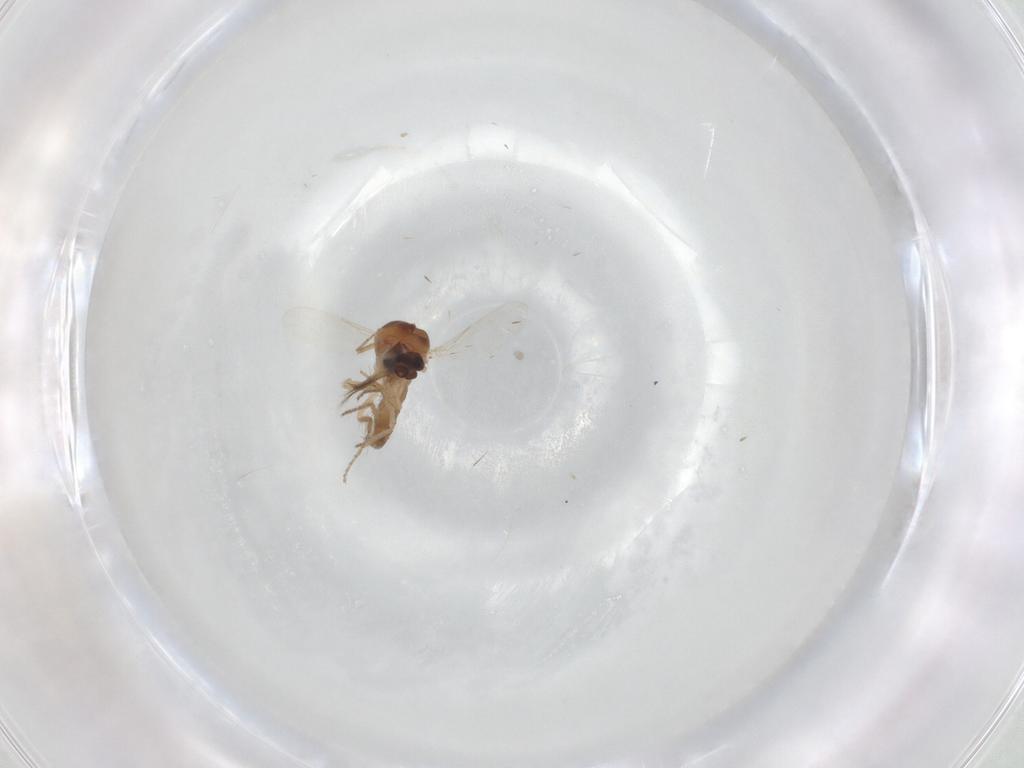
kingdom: Animalia
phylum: Arthropoda
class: Insecta
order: Diptera
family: Ceratopogonidae
